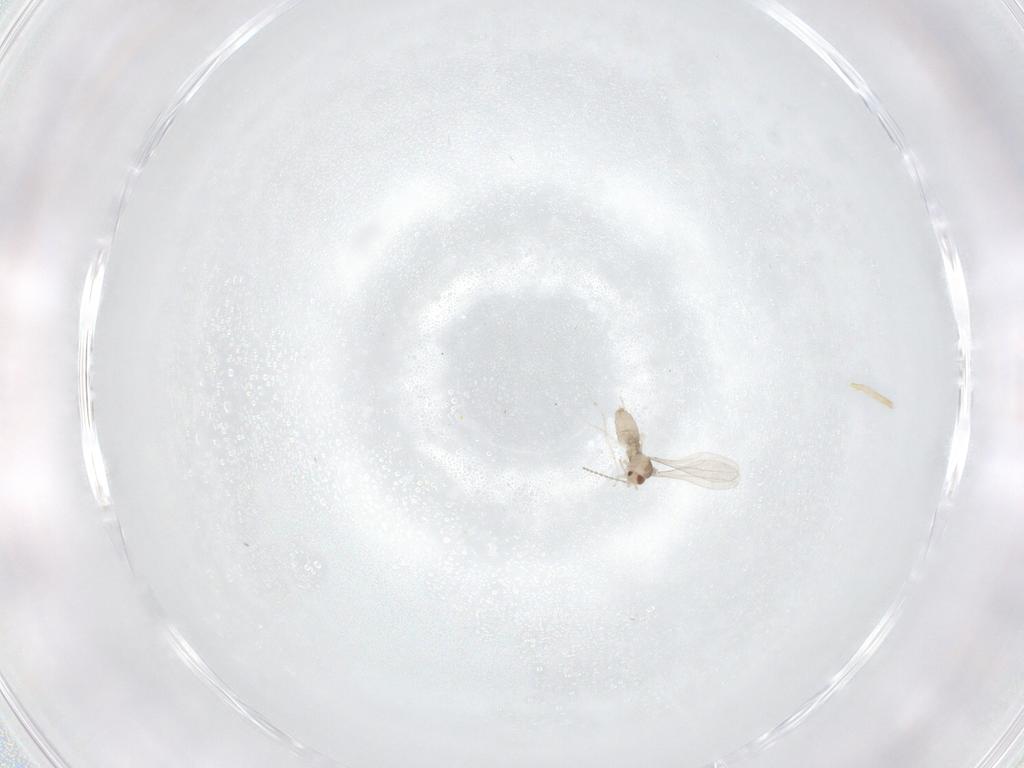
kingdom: Animalia
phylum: Arthropoda
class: Insecta
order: Diptera
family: Cecidomyiidae
